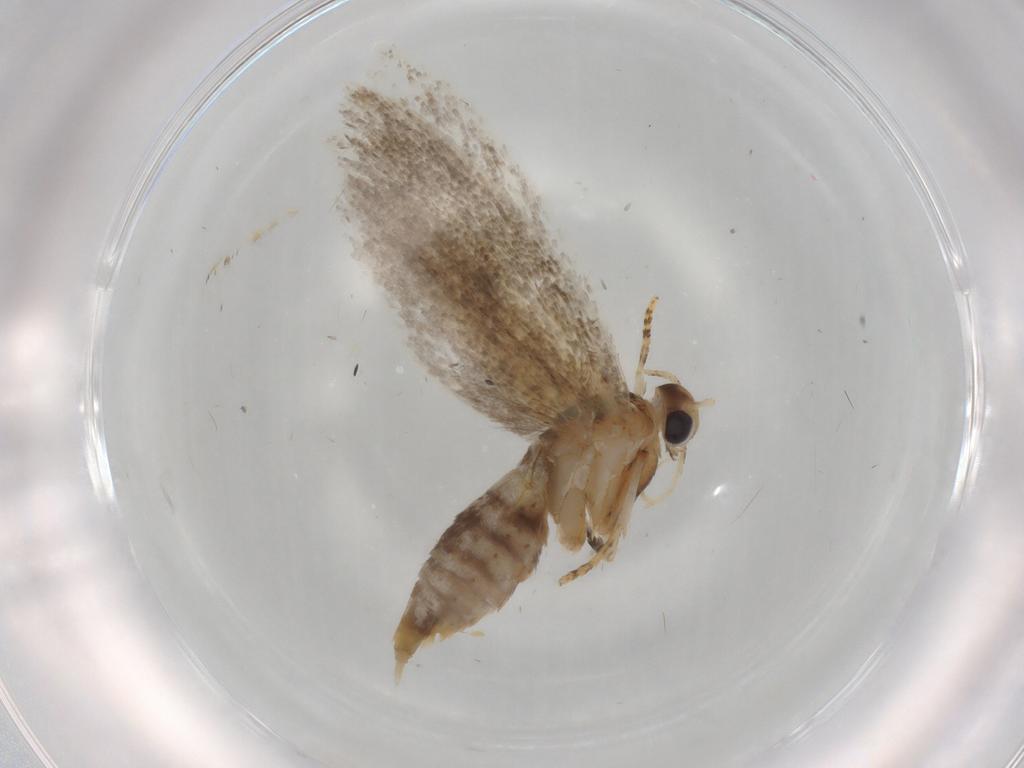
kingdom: Animalia
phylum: Arthropoda
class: Insecta
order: Lepidoptera
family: Oecophoridae
